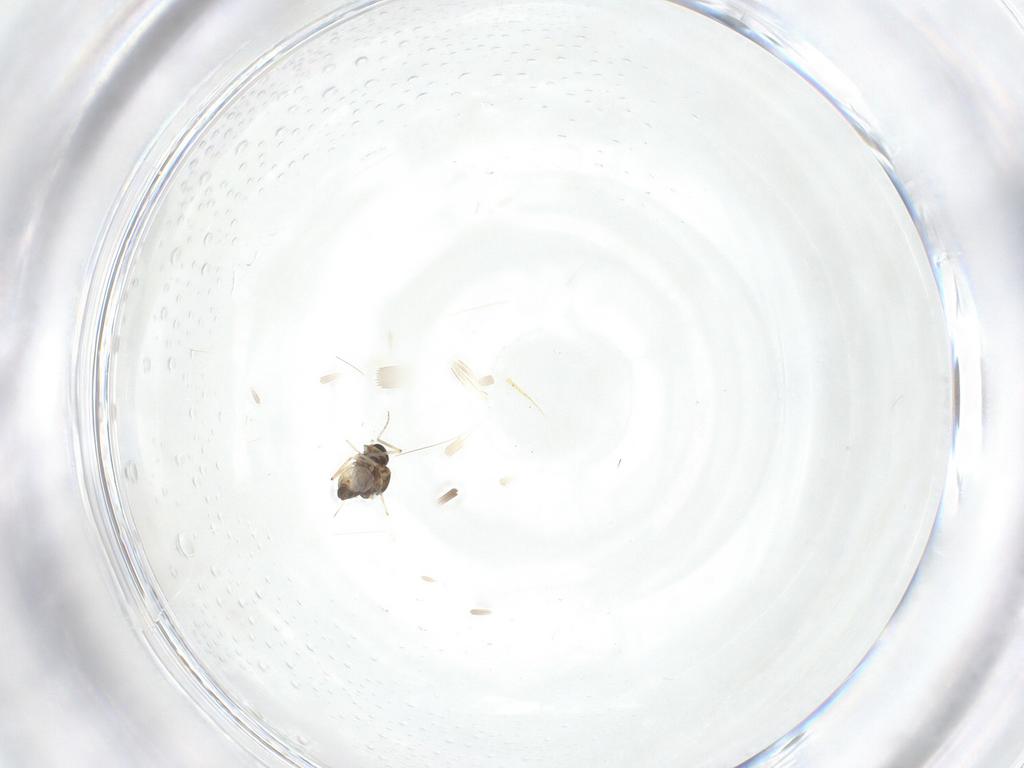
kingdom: Animalia
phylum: Arthropoda
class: Insecta
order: Diptera
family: Ceratopogonidae
